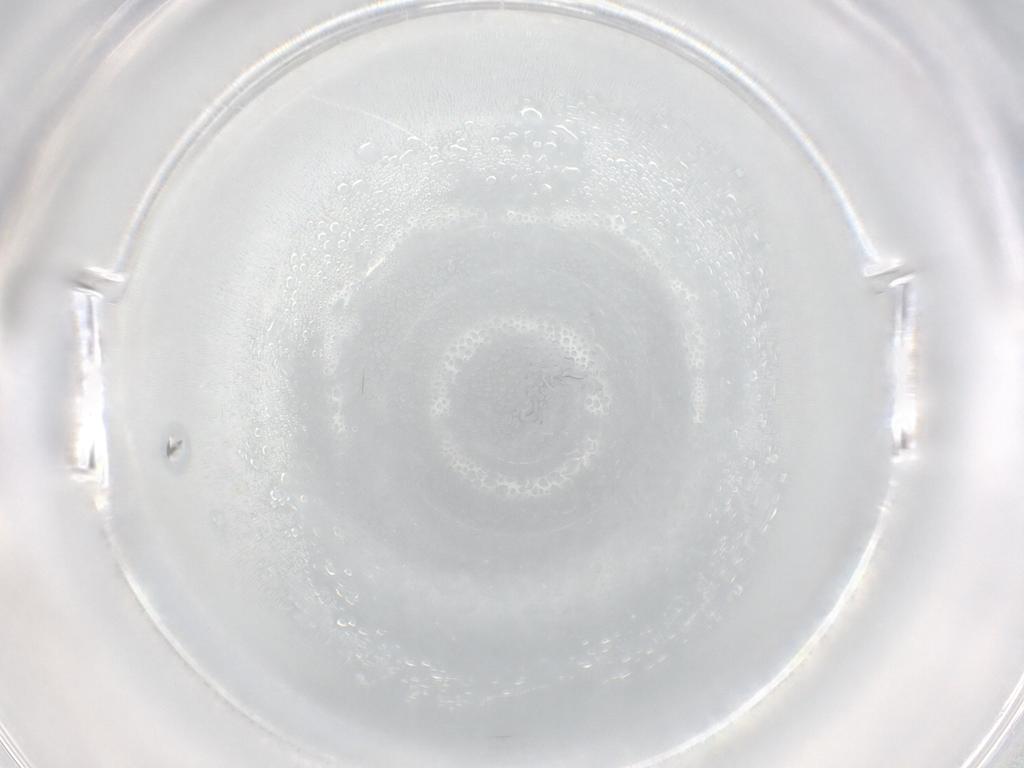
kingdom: Animalia
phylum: Arthropoda
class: Arachnida
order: Trombidiformes
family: Eupodidae
